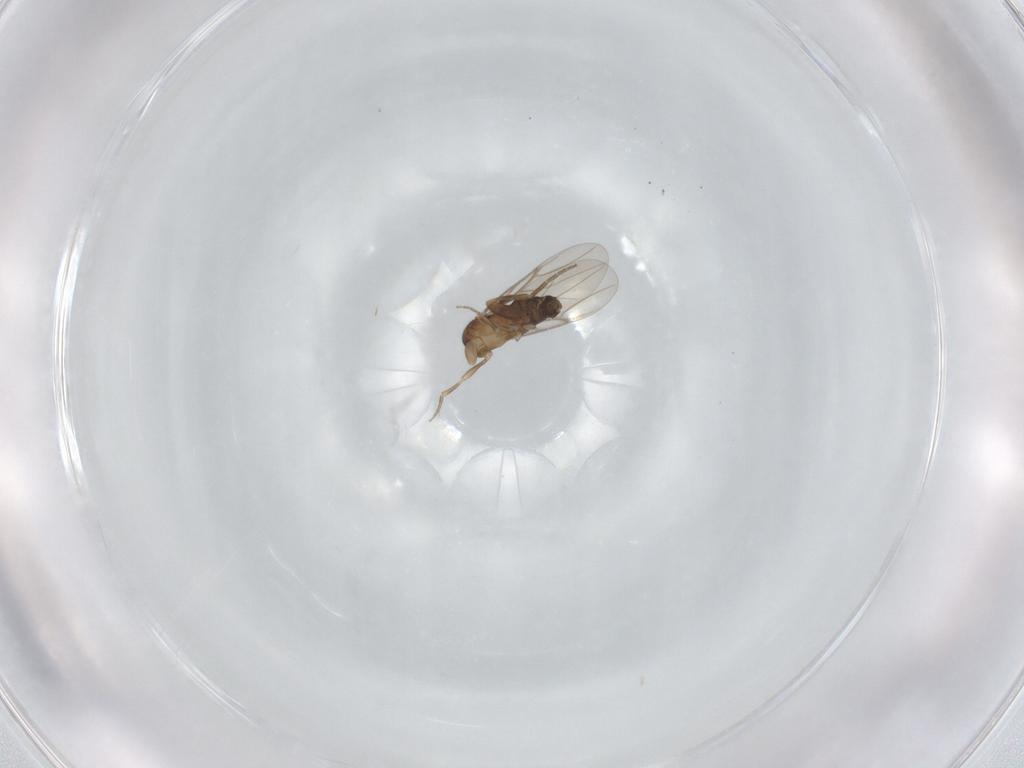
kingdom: Animalia
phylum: Arthropoda
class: Insecta
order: Diptera
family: Phoridae
